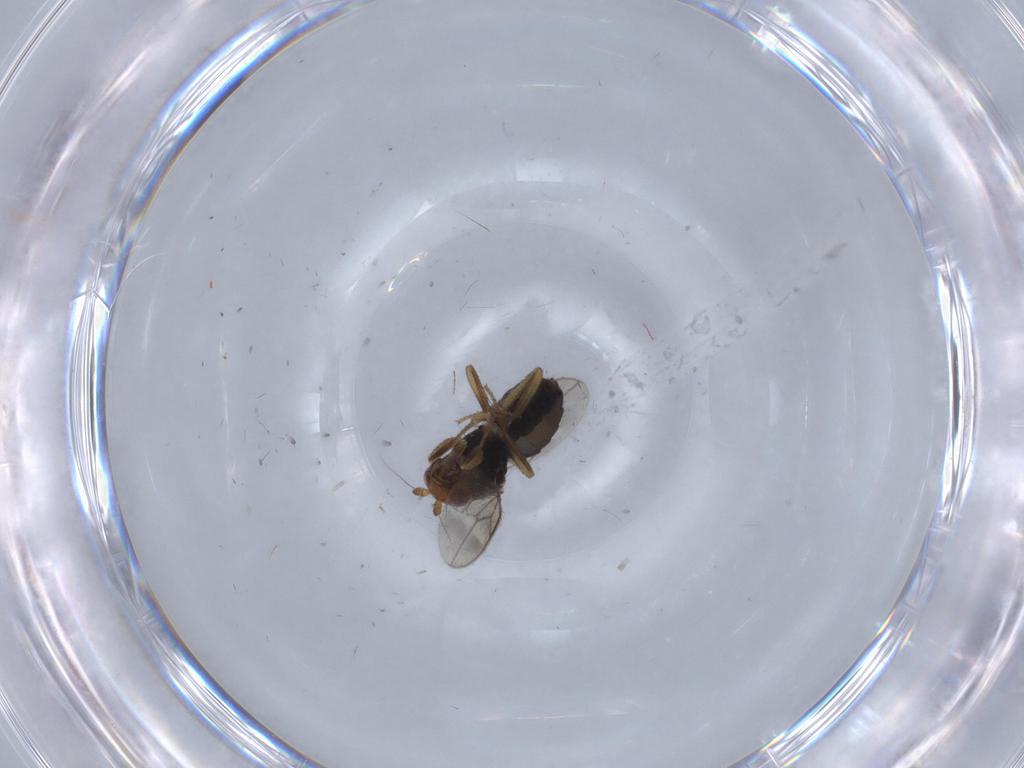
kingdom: Animalia
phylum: Arthropoda
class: Insecta
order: Diptera
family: Sphaeroceridae
